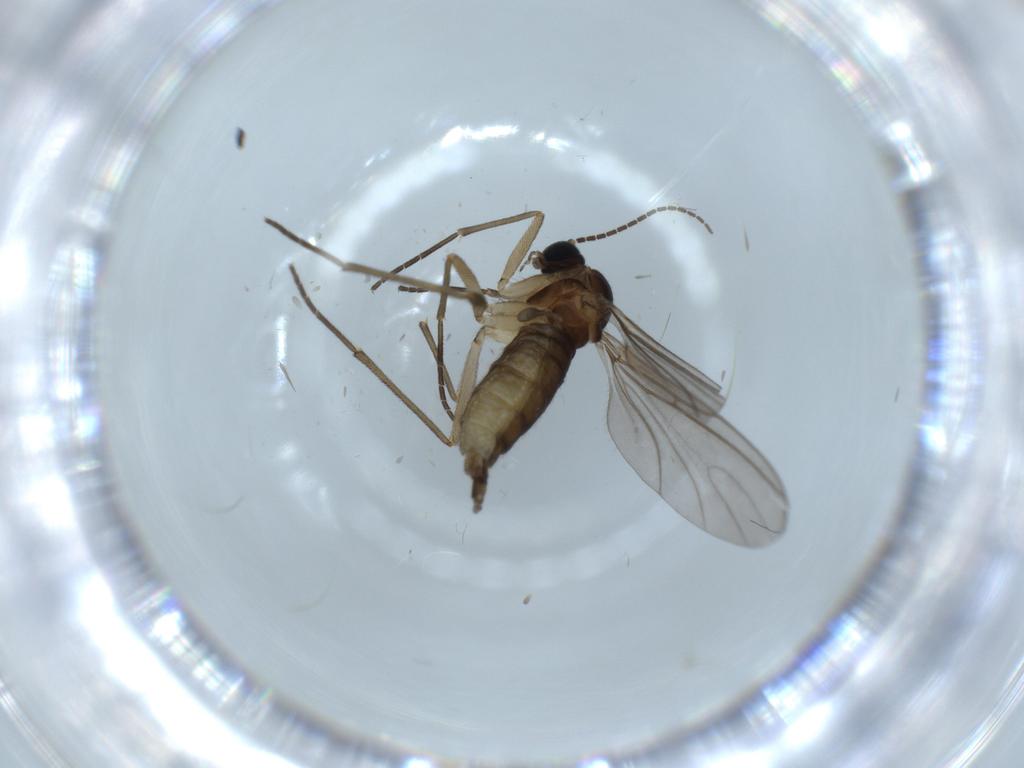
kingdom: Animalia
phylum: Arthropoda
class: Insecta
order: Diptera
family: Sciaridae
